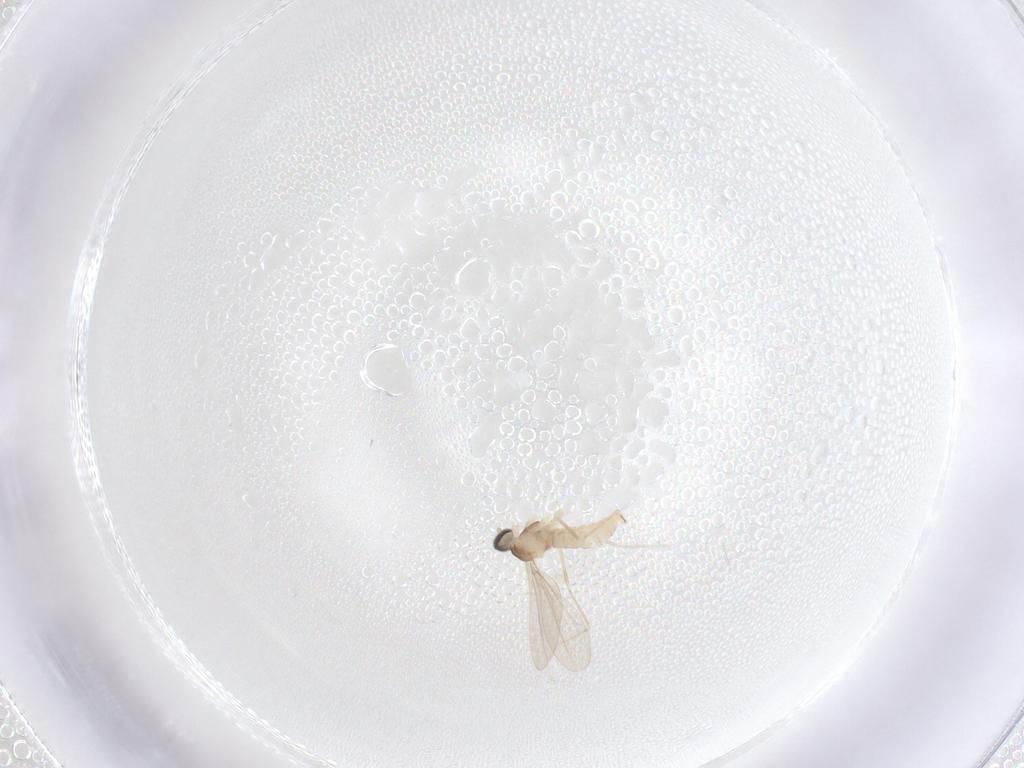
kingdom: Animalia
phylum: Arthropoda
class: Insecta
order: Diptera
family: Cecidomyiidae
